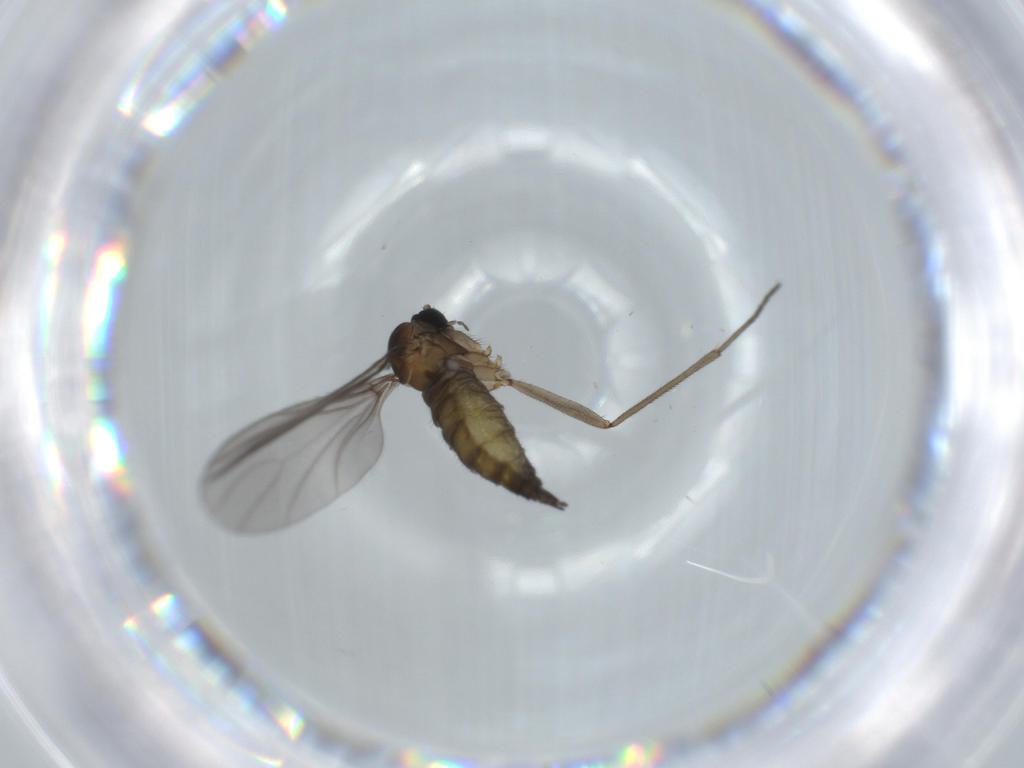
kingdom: Animalia
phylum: Arthropoda
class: Insecta
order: Diptera
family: Sciaridae
